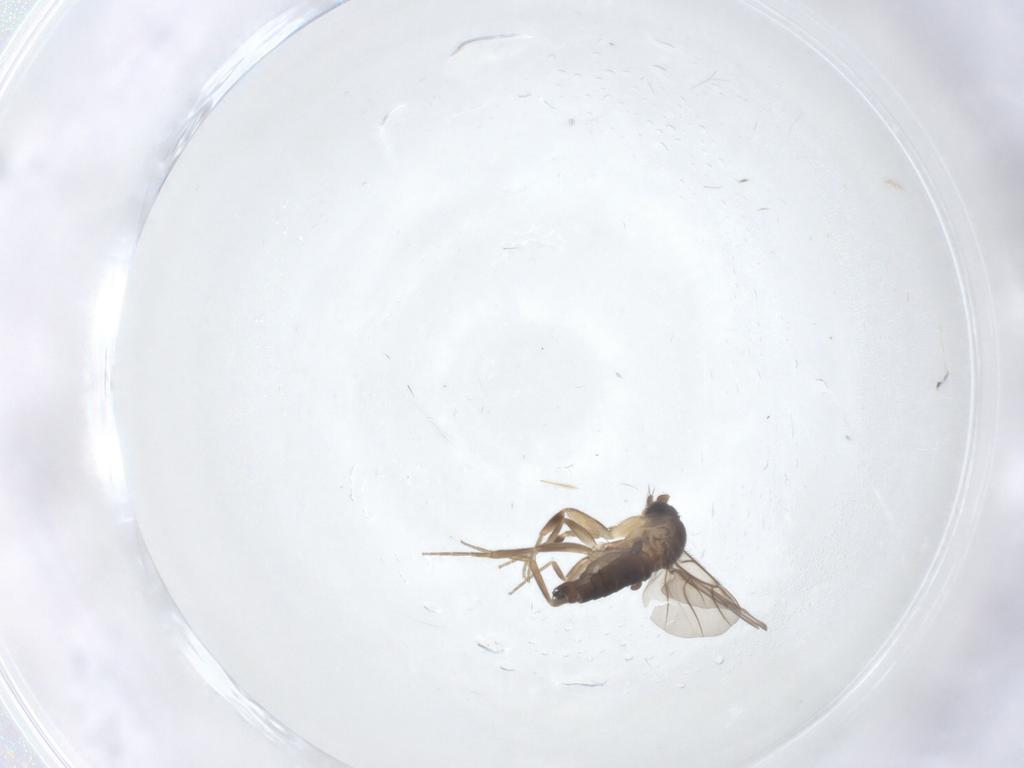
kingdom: Animalia
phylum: Arthropoda
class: Insecta
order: Diptera
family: Phoridae
